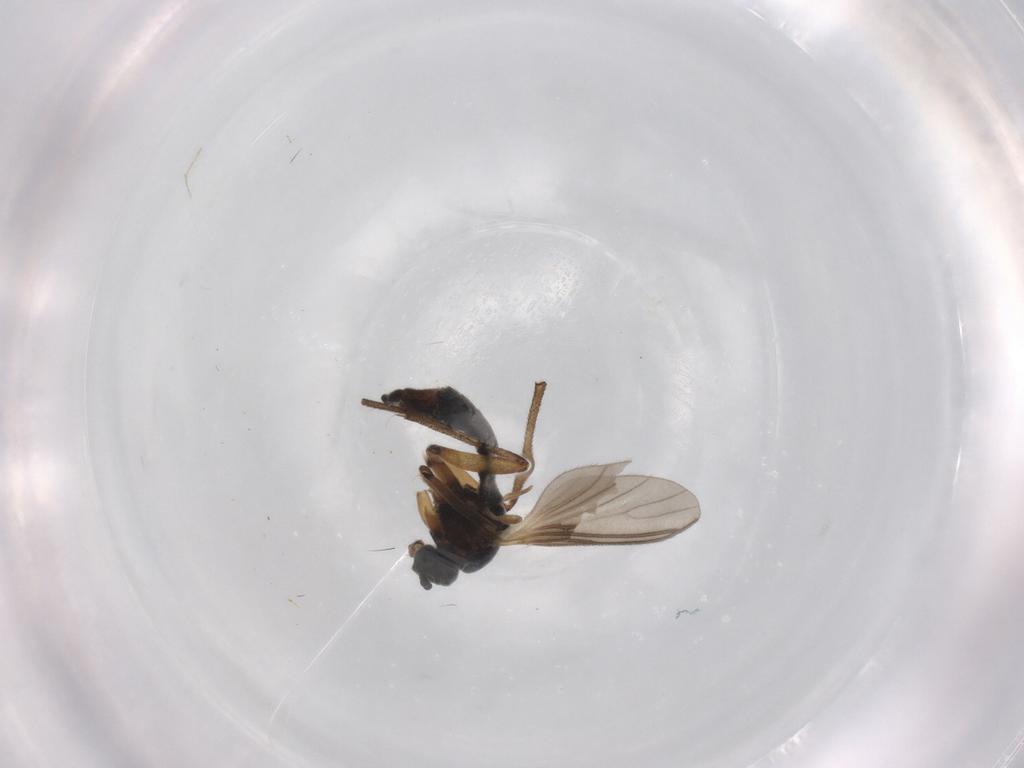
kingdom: Animalia
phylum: Arthropoda
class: Insecta
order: Diptera
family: Sciaridae
